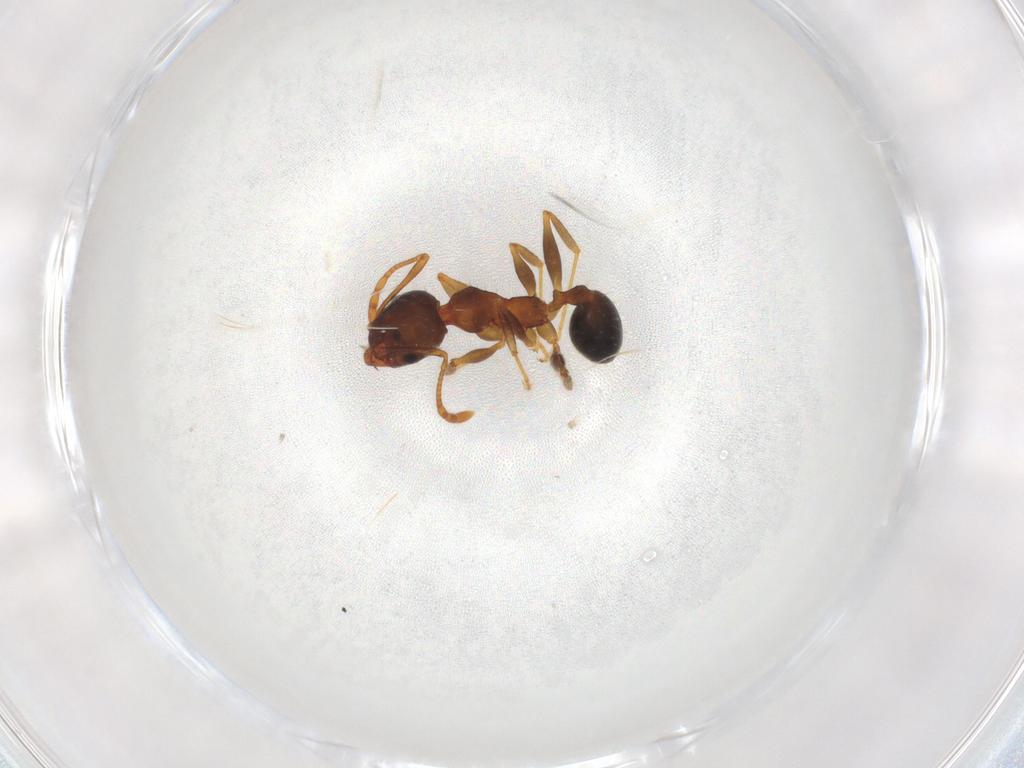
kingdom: Animalia
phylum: Arthropoda
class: Insecta
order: Hymenoptera
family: Formicidae
